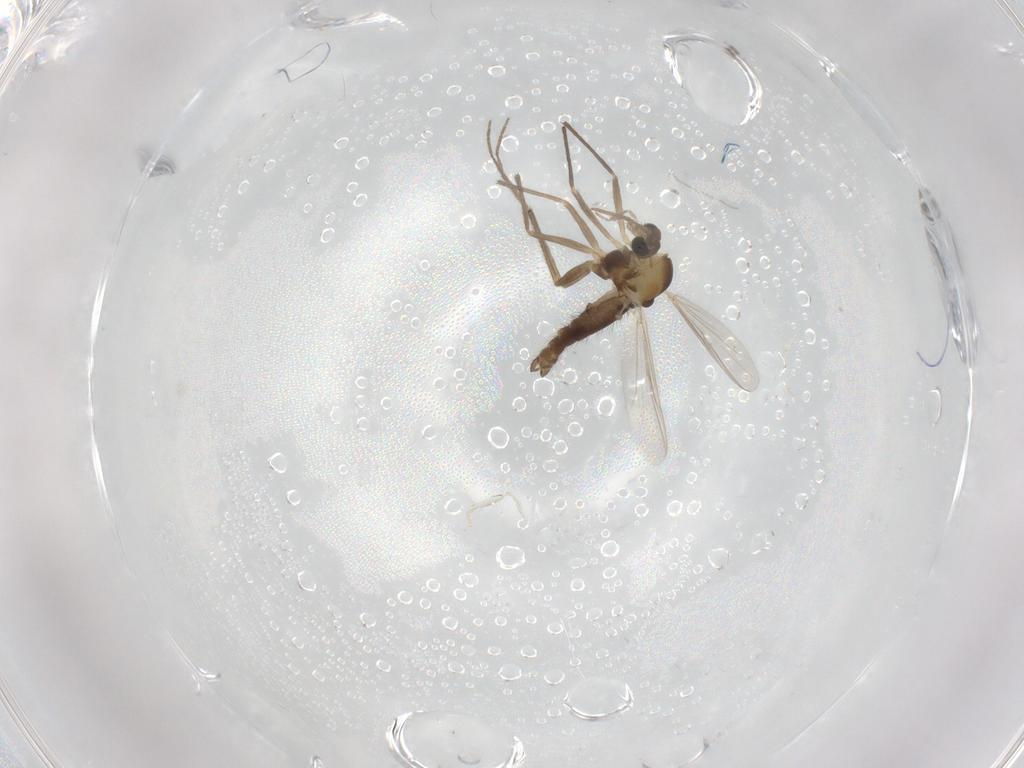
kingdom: Animalia
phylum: Arthropoda
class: Insecta
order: Diptera
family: Chironomidae
